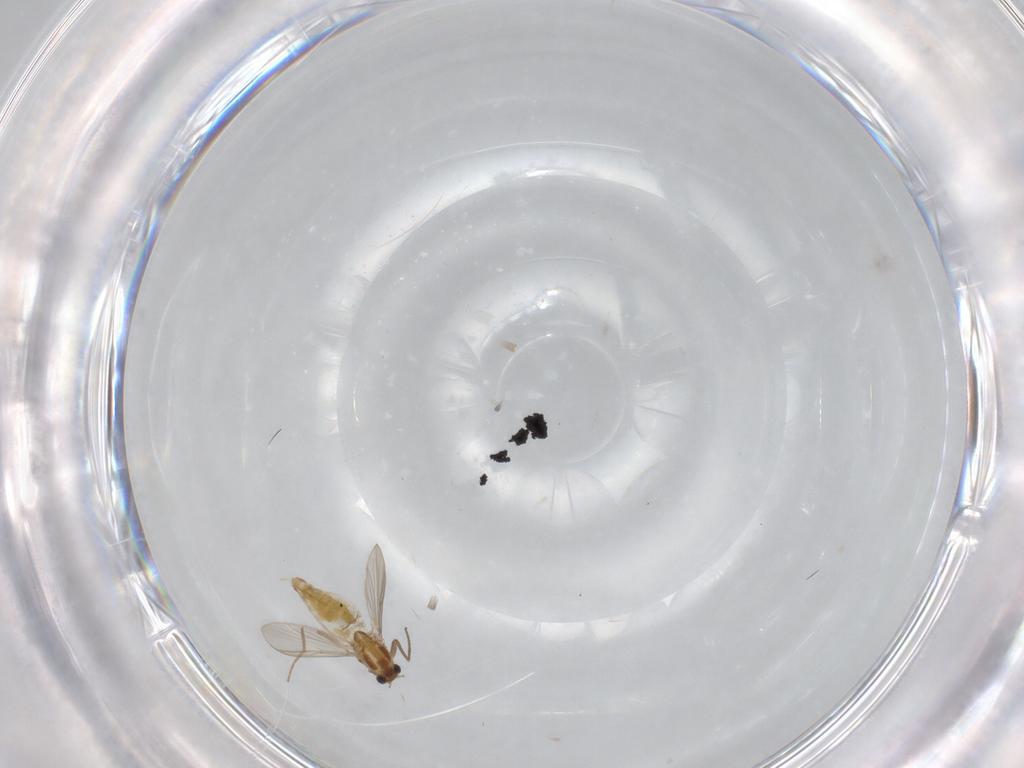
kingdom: Animalia
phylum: Arthropoda
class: Insecta
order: Diptera
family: Chironomidae
